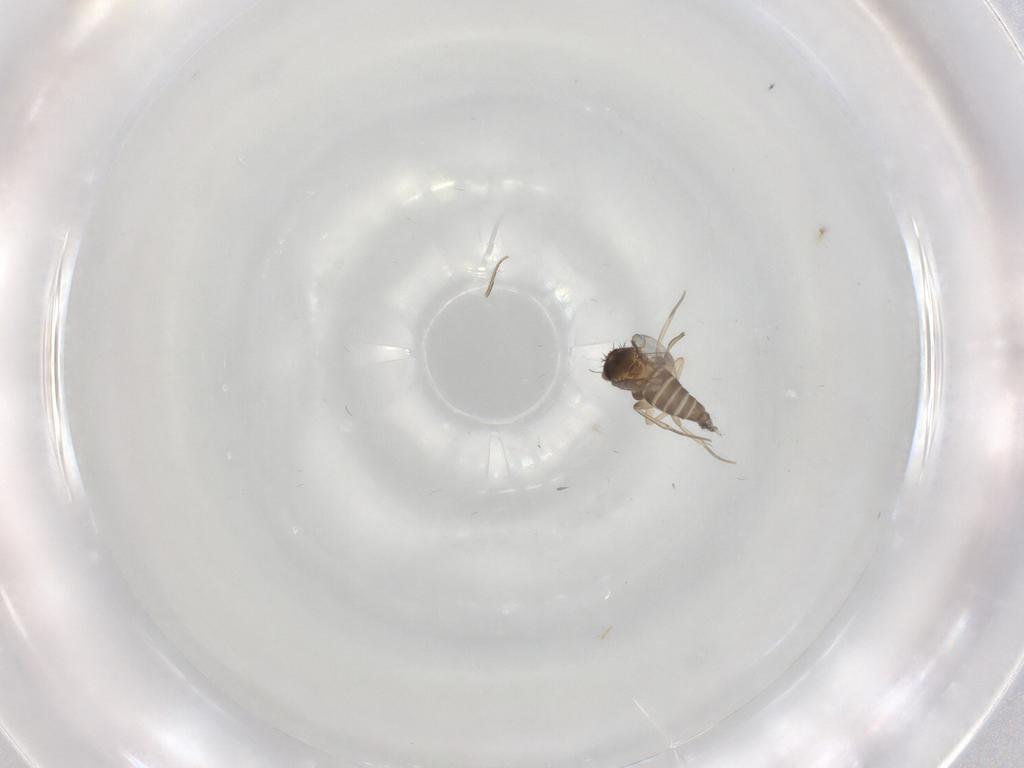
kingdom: Animalia
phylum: Arthropoda
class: Insecta
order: Diptera
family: Phoridae
